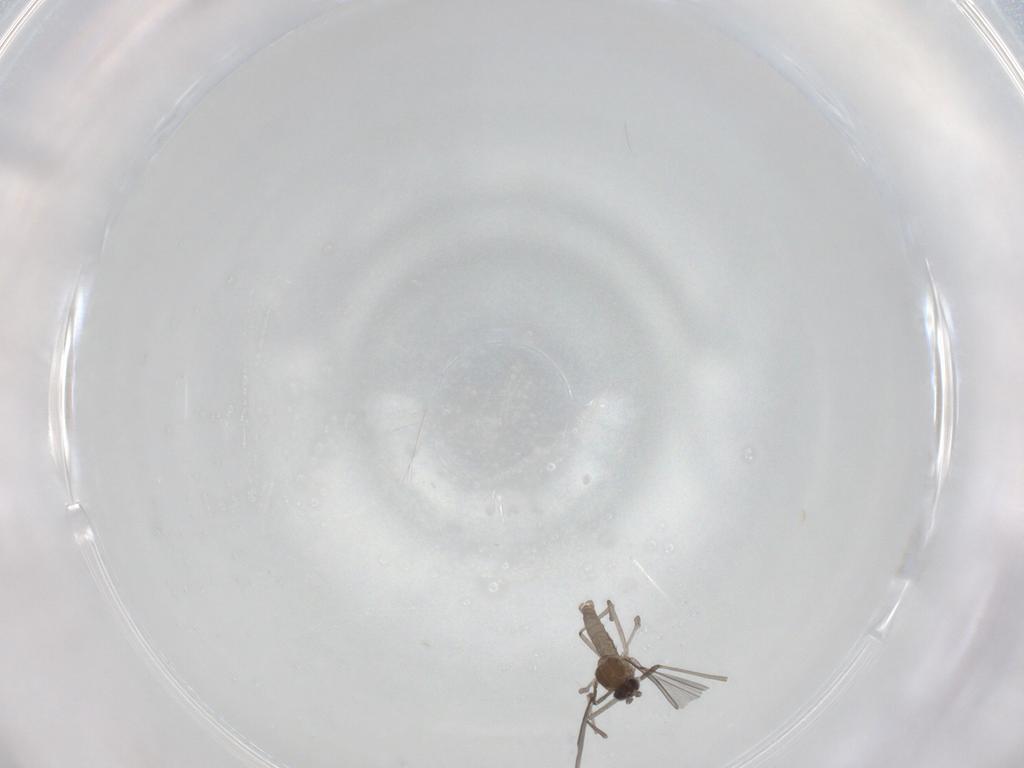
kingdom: Animalia
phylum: Arthropoda
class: Insecta
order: Diptera
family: Cecidomyiidae
